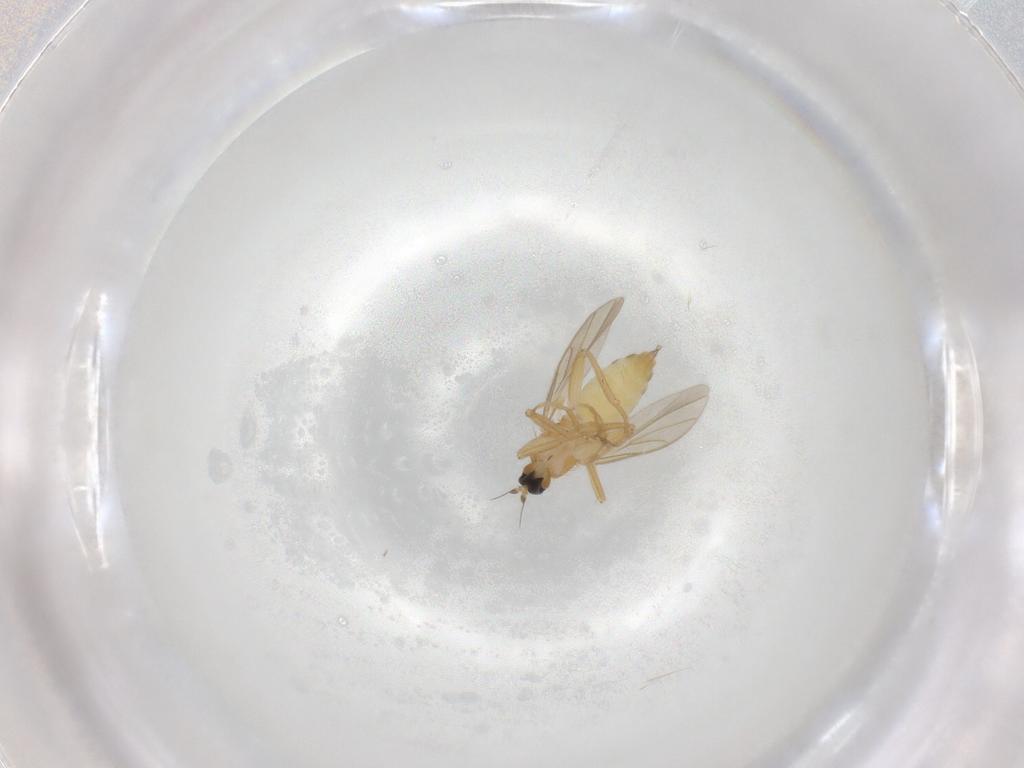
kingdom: Animalia
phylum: Arthropoda
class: Insecta
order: Diptera
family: Hybotidae
